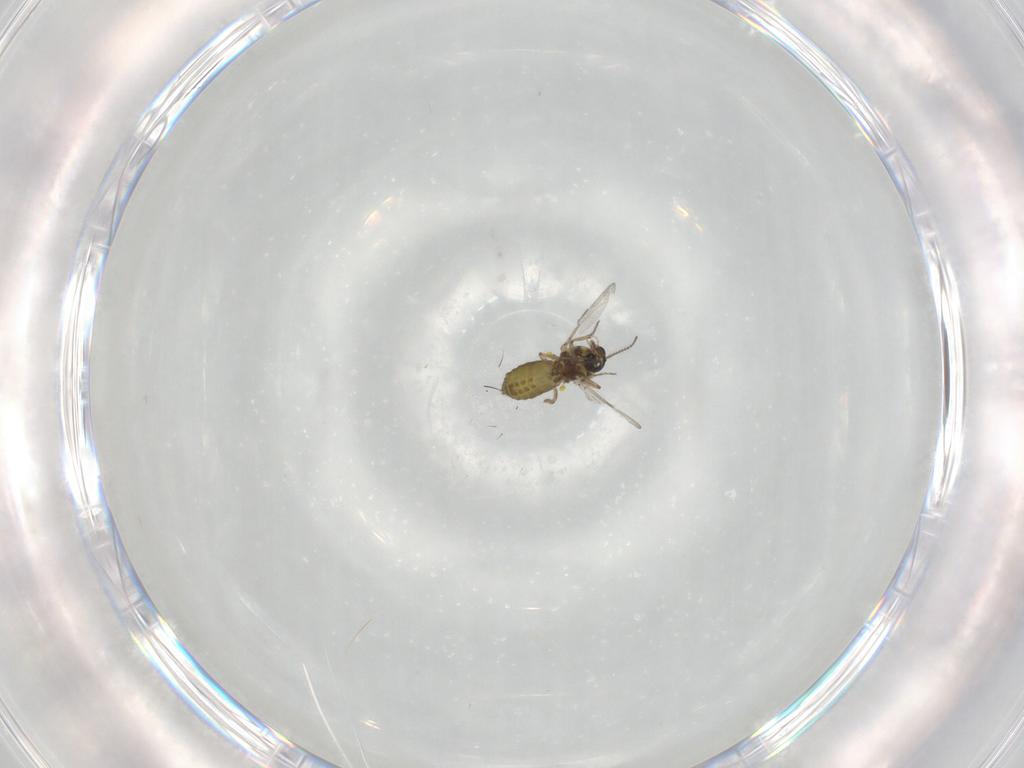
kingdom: Animalia
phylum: Arthropoda
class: Insecta
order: Diptera
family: Ceratopogonidae
